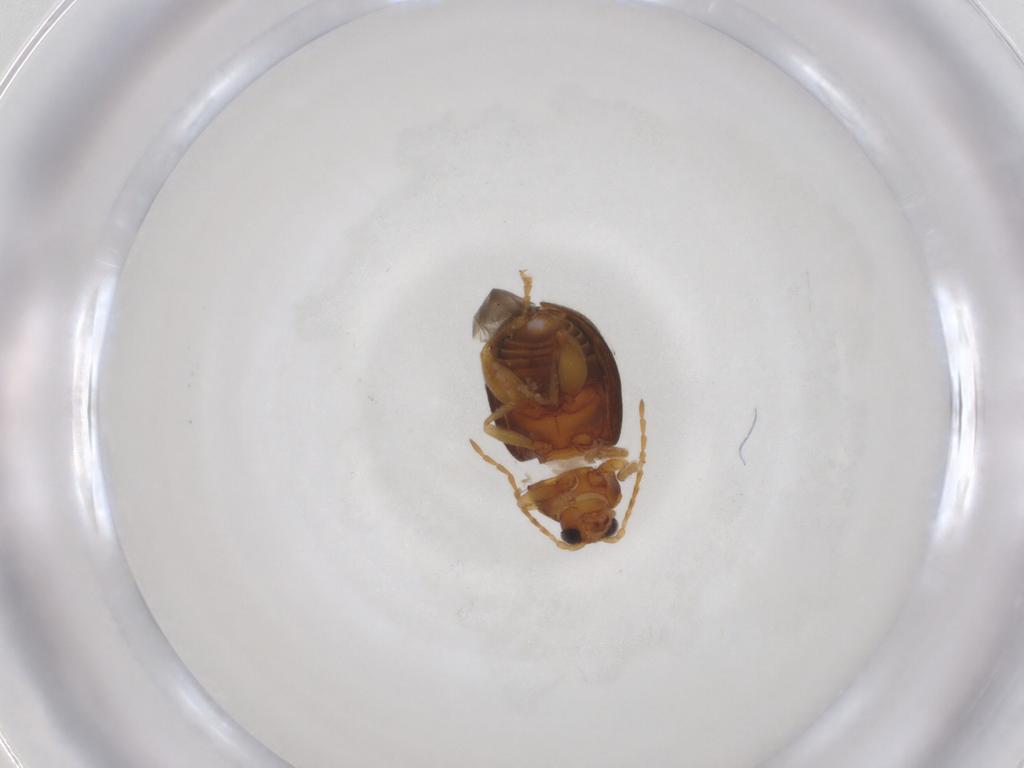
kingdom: Animalia
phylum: Arthropoda
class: Insecta
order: Coleoptera
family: Chrysomelidae
